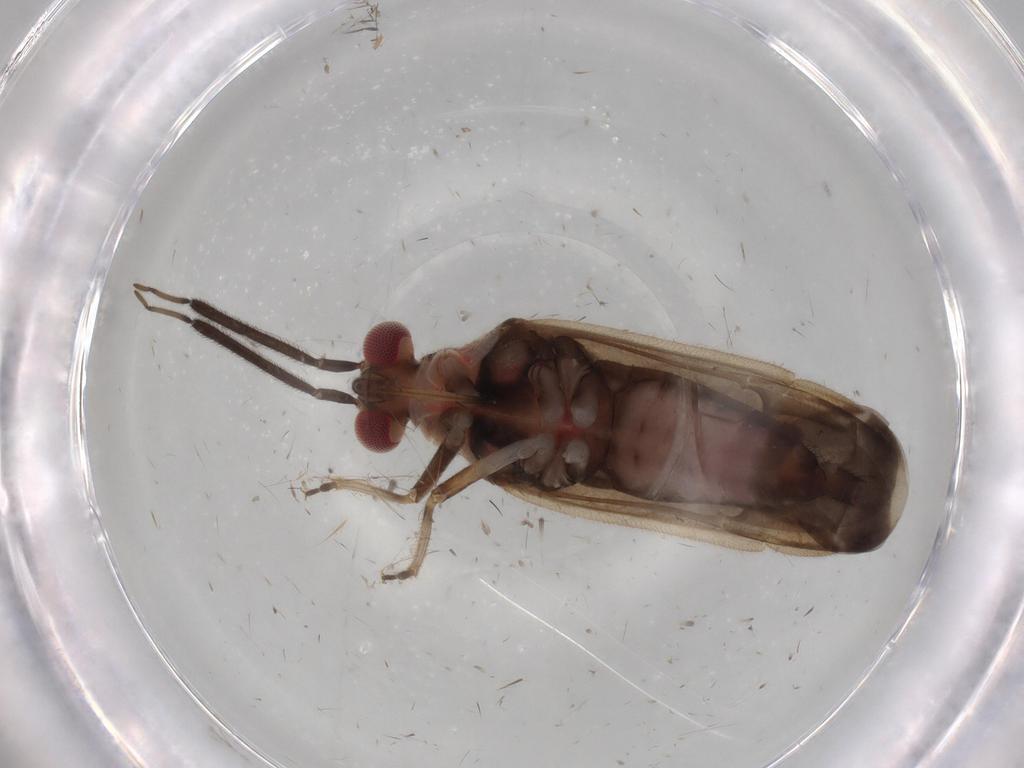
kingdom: Animalia
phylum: Arthropoda
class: Insecta
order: Hemiptera
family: Miridae
